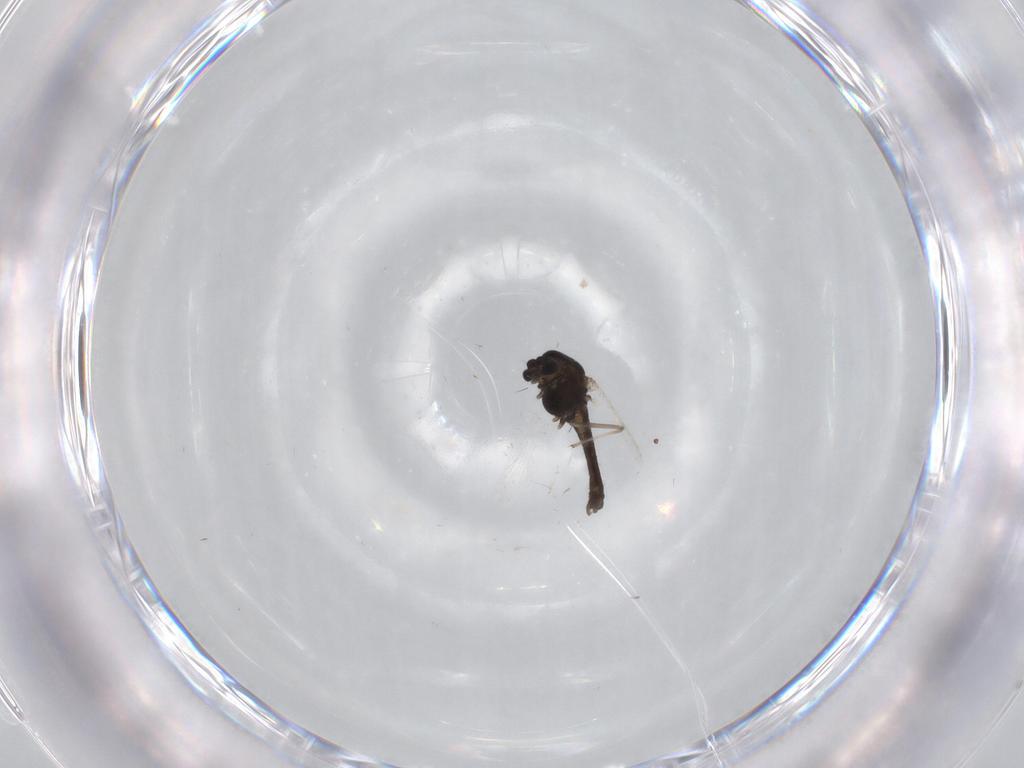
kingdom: Animalia
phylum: Arthropoda
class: Insecta
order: Diptera
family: Chironomidae
